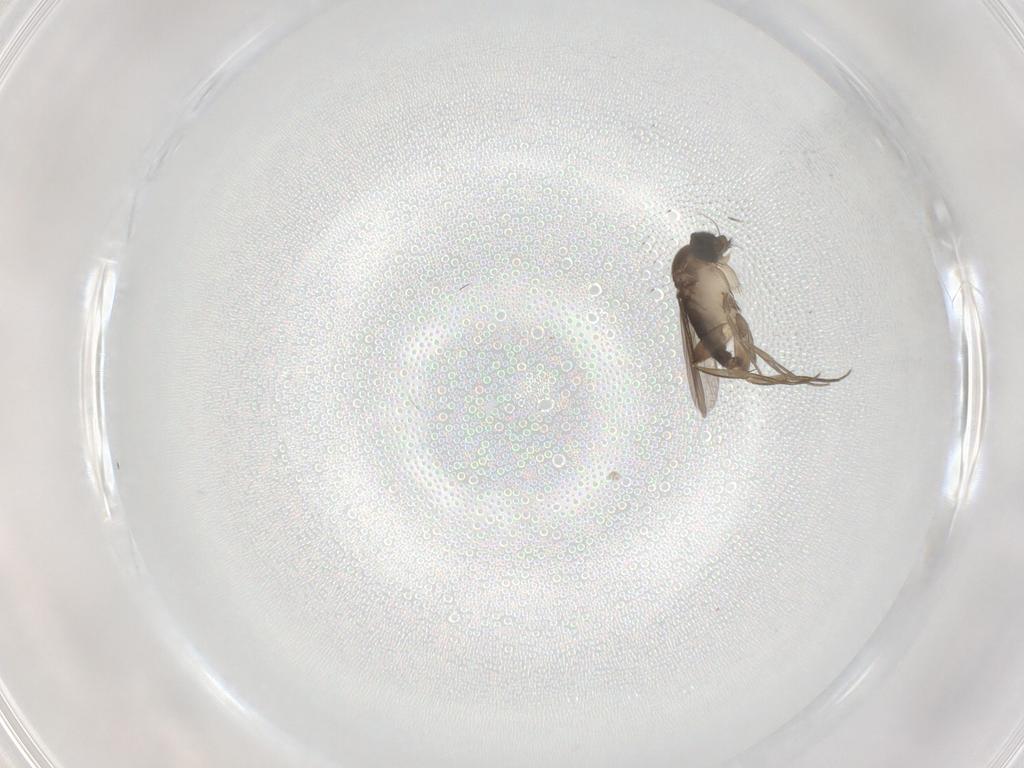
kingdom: Animalia
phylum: Arthropoda
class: Insecta
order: Diptera
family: Phoridae
